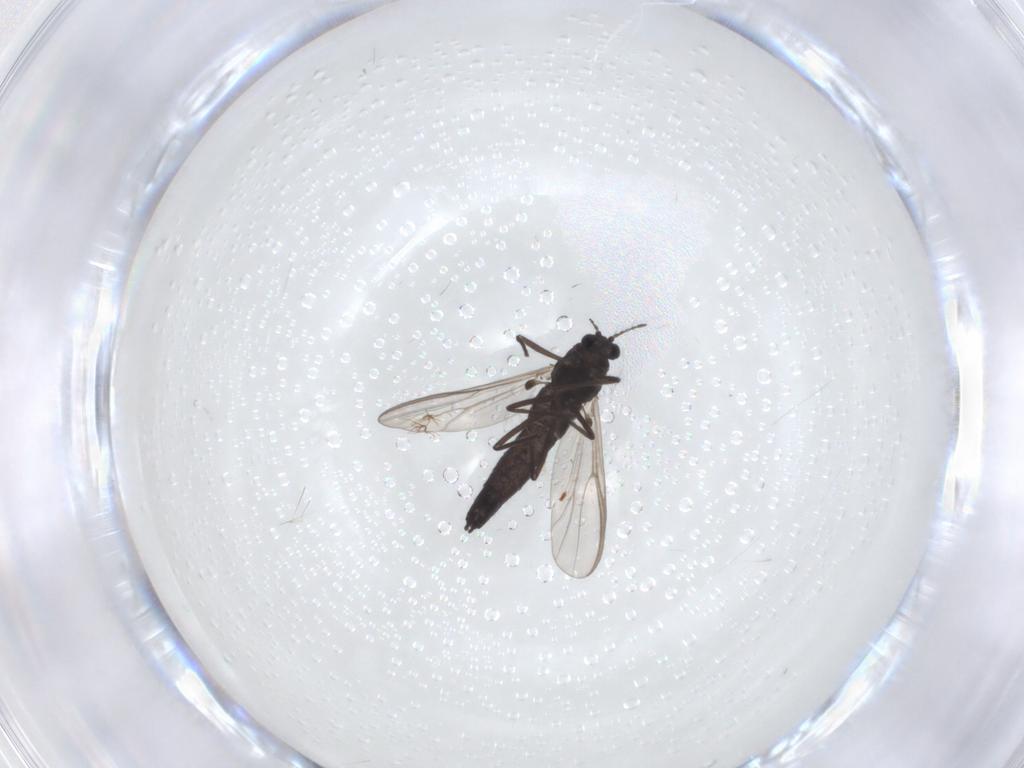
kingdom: Animalia
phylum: Arthropoda
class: Insecta
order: Diptera
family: Chironomidae
